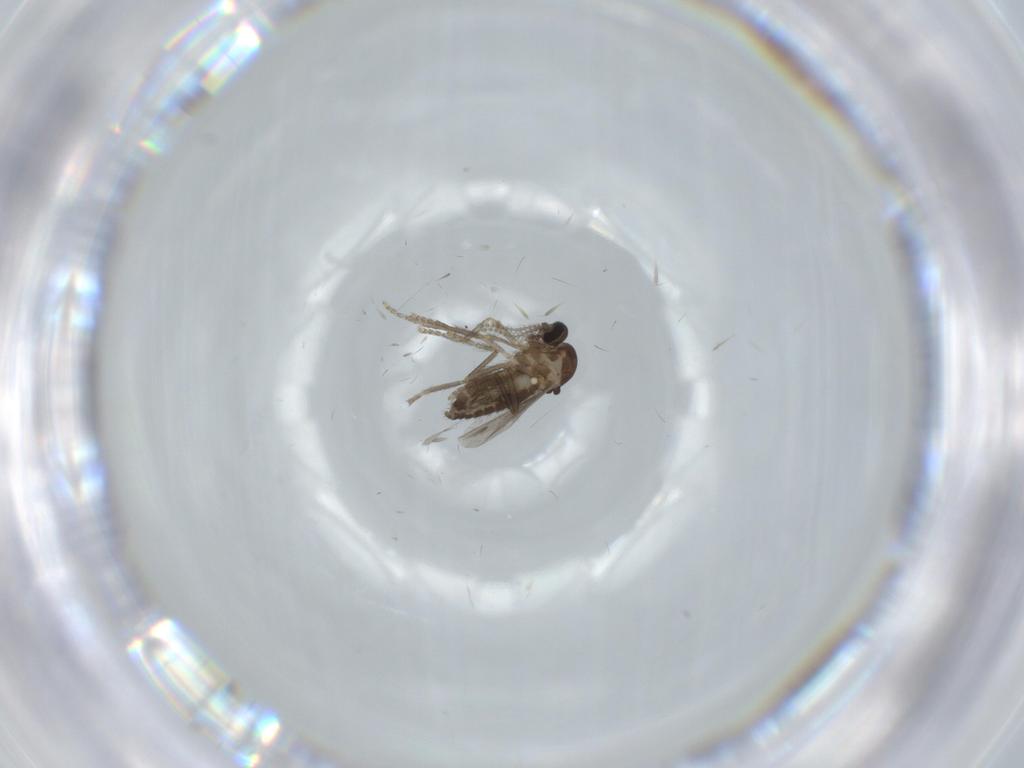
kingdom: Animalia
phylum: Arthropoda
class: Insecta
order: Diptera
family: Ceratopogonidae
